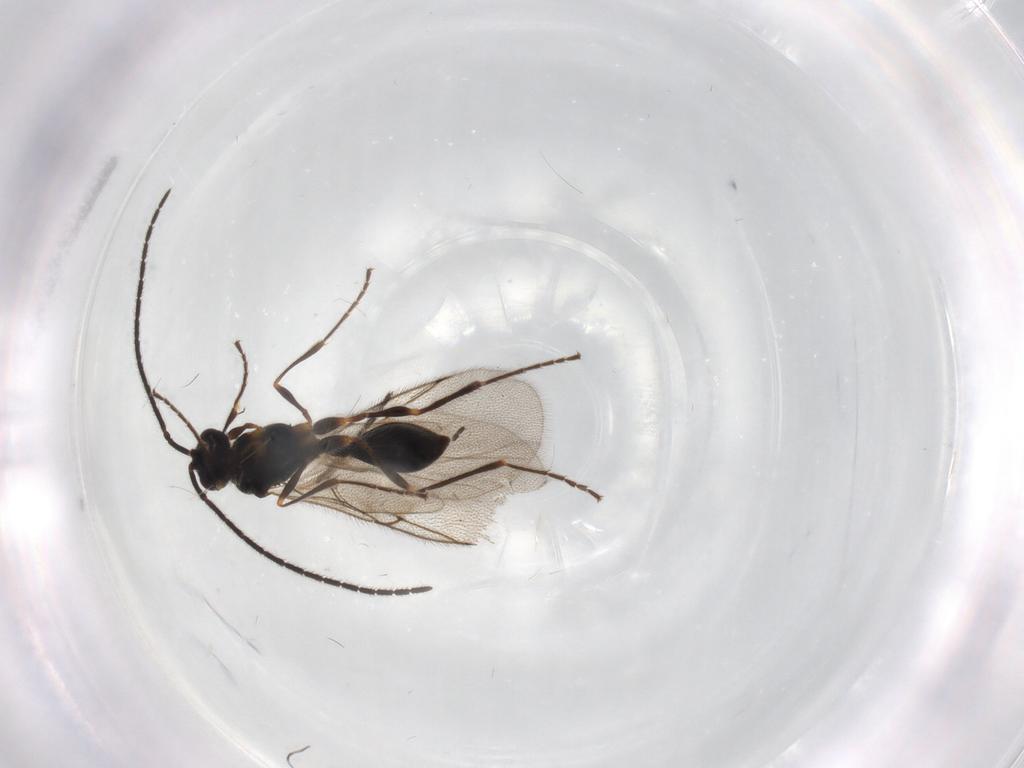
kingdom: Animalia
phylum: Arthropoda
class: Insecta
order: Hymenoptera
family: Diapriidae
